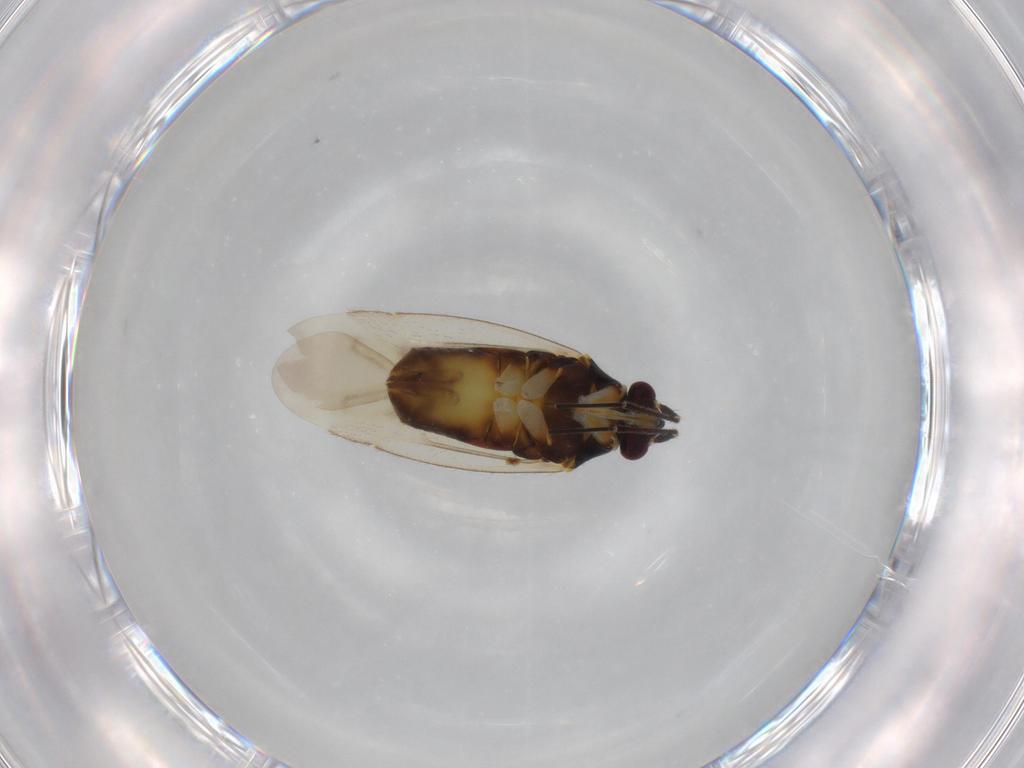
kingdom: Animalia
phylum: Arthropoda
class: Insecta
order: Hemiptera
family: Miridae
